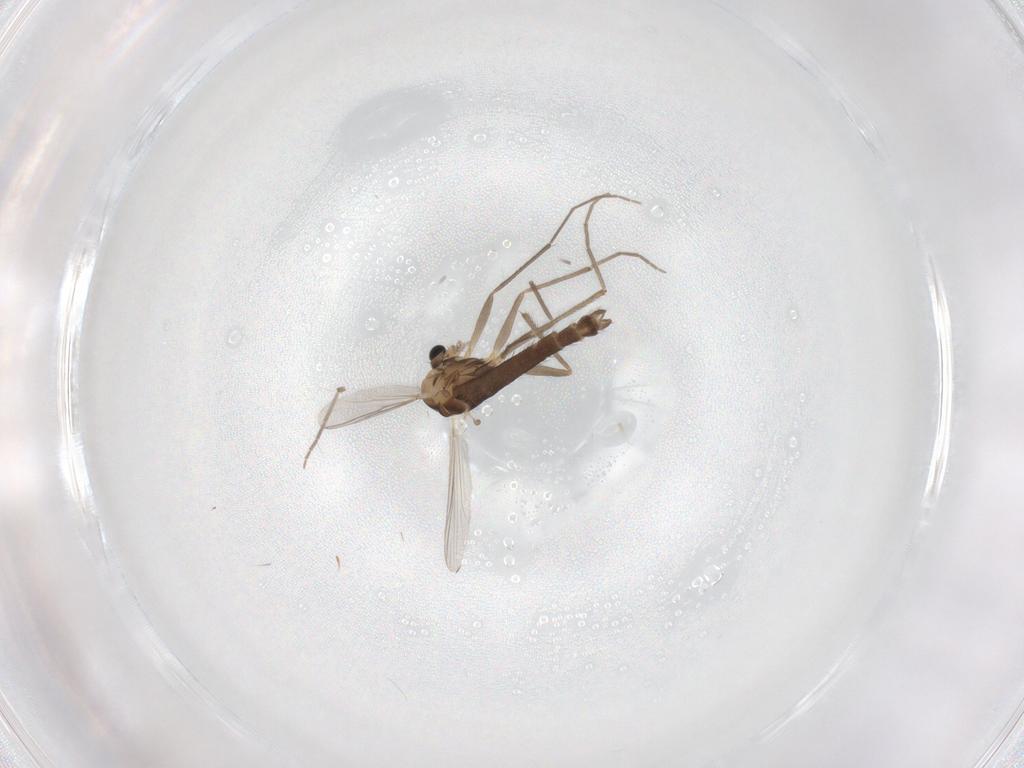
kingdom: Animalia
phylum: Arthropoda
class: Insecta
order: Diptera
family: Chironomidae
